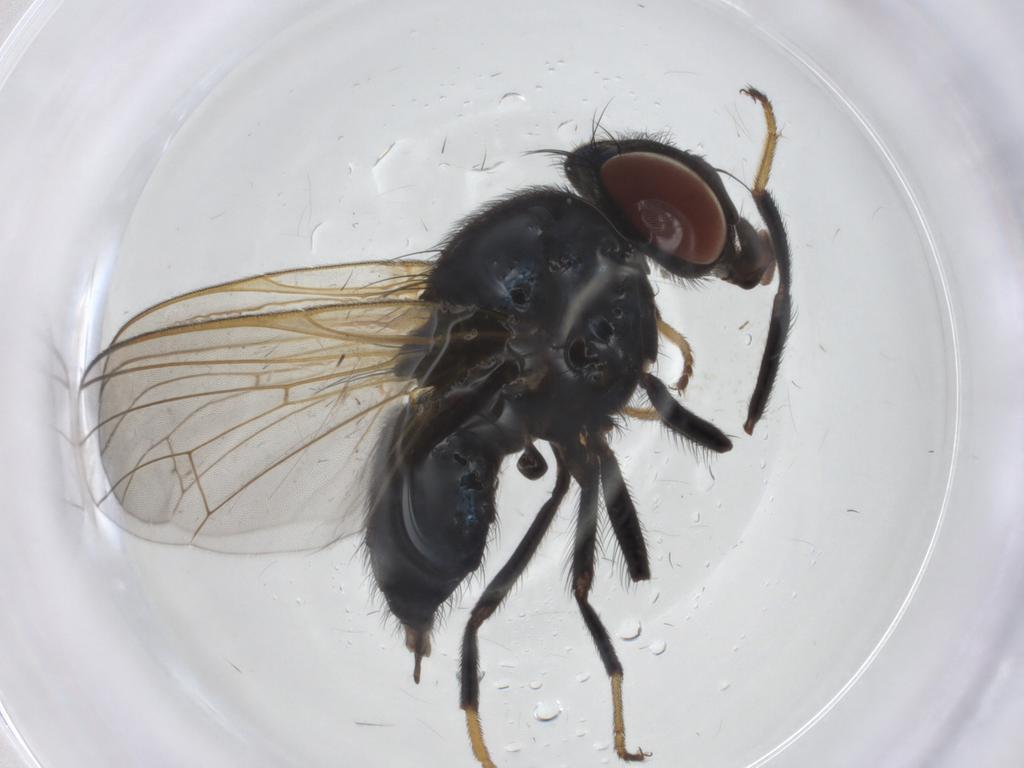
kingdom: Animalia
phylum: Arthropoda
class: Insecta
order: Diptera
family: Lonchaeidae
